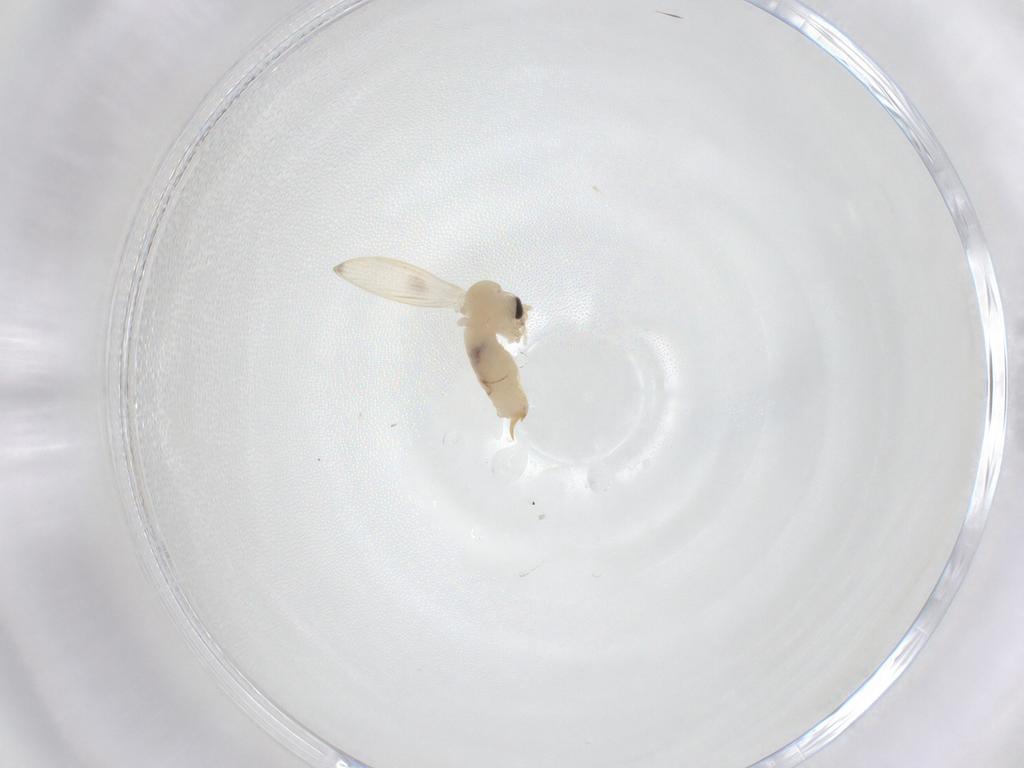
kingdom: Animalia
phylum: Arthropoda
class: Insecta
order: Diptera
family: Psychodidae
